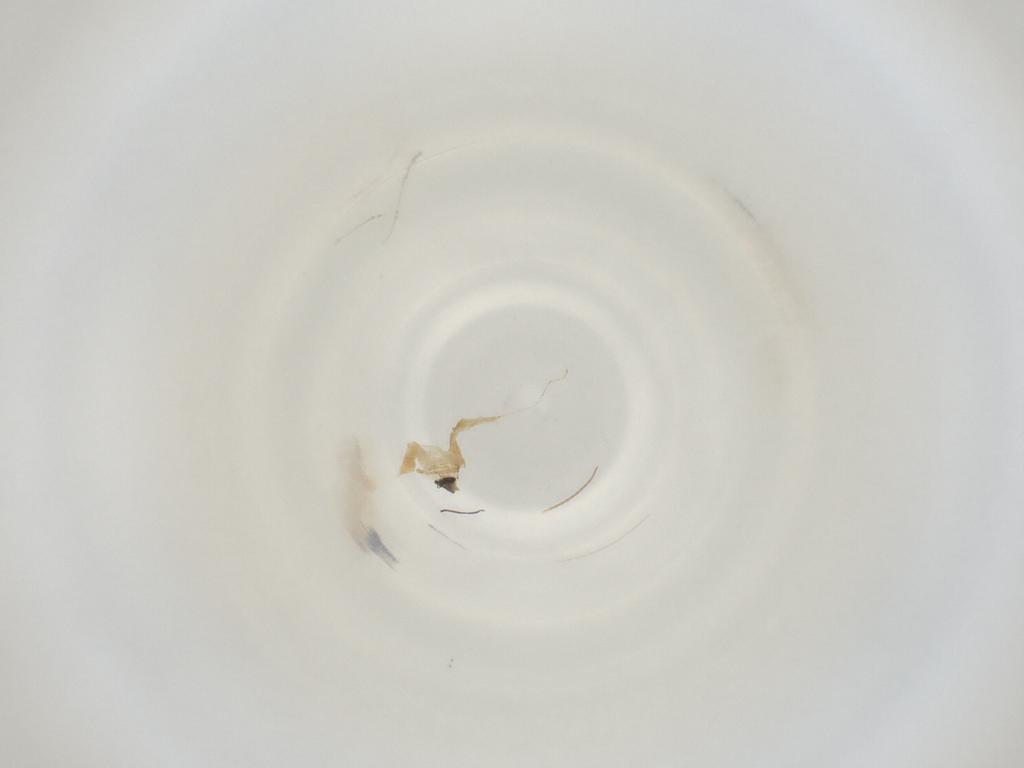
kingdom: Animalia
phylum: Arthropoda
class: Insecta
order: Diptera
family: Cecidomyiidae
